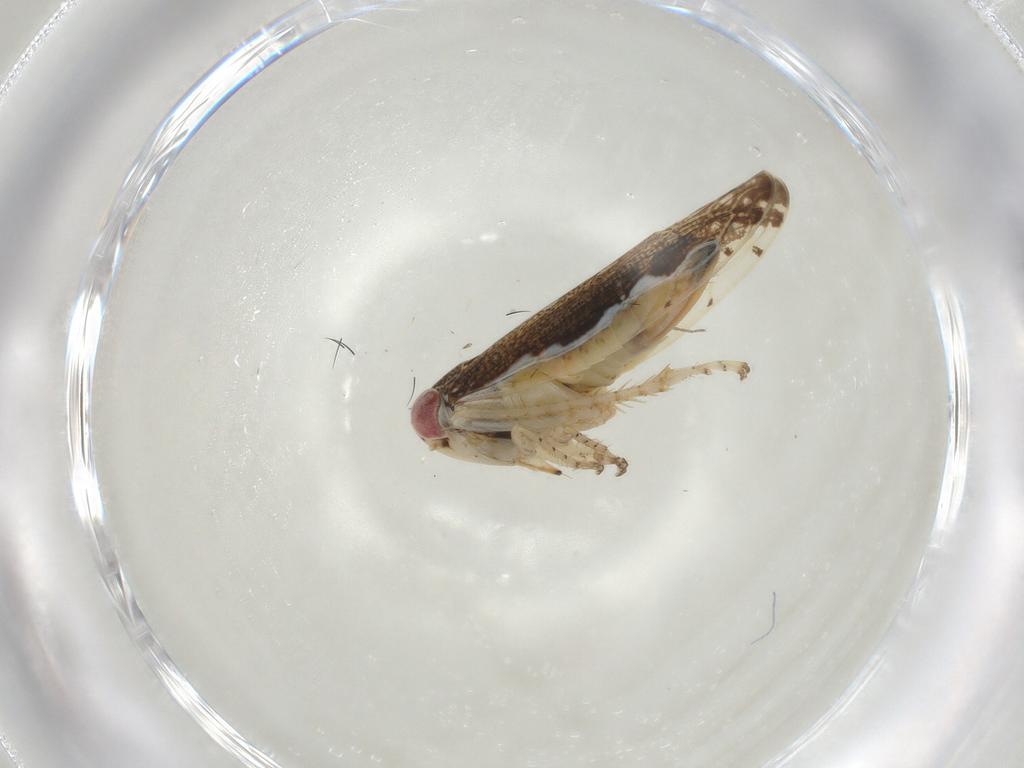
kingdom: Animalia
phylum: Arthropoda
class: Insecta
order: Hemiptera
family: Cicadellidae
